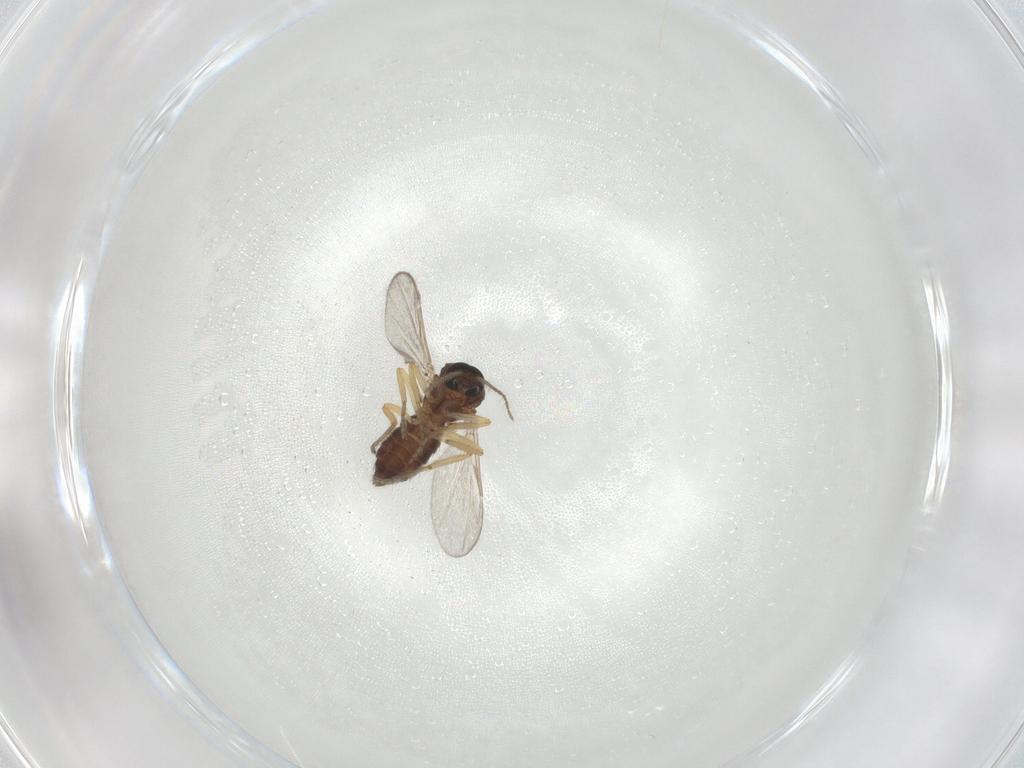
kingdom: Animalia
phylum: Arthropoda
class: Insecta
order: Diptera
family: Ceratopogonidae
